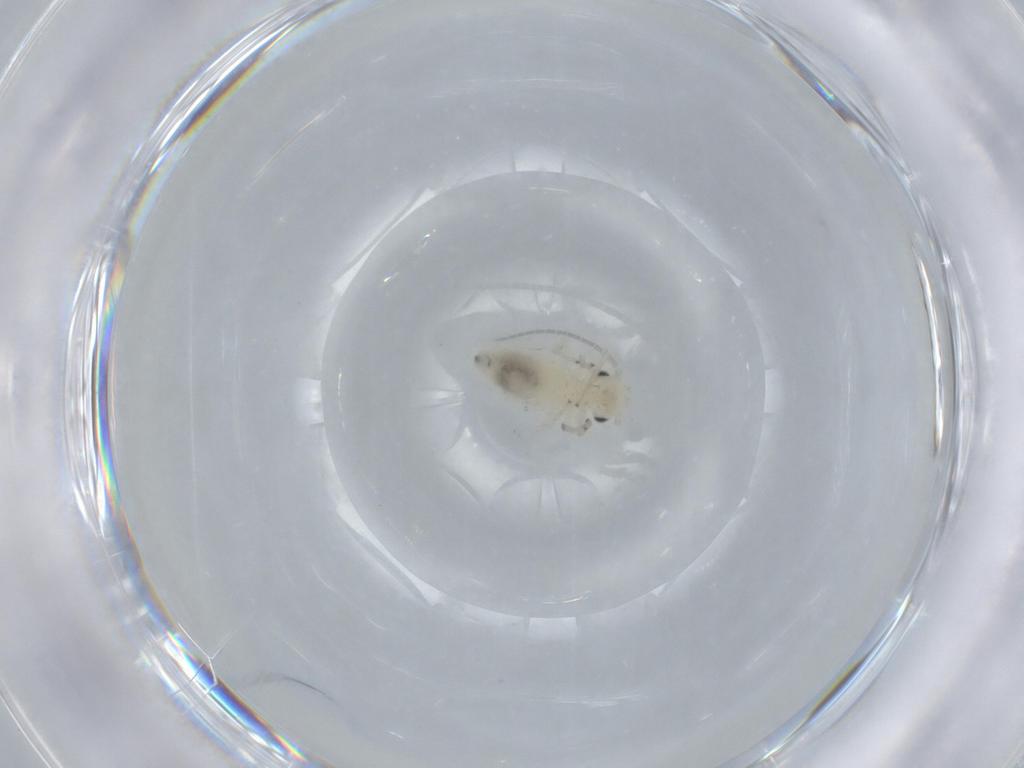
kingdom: Animalia
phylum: Arthropoda
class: Insecta
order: Psocodea
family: Caeciliusidae
